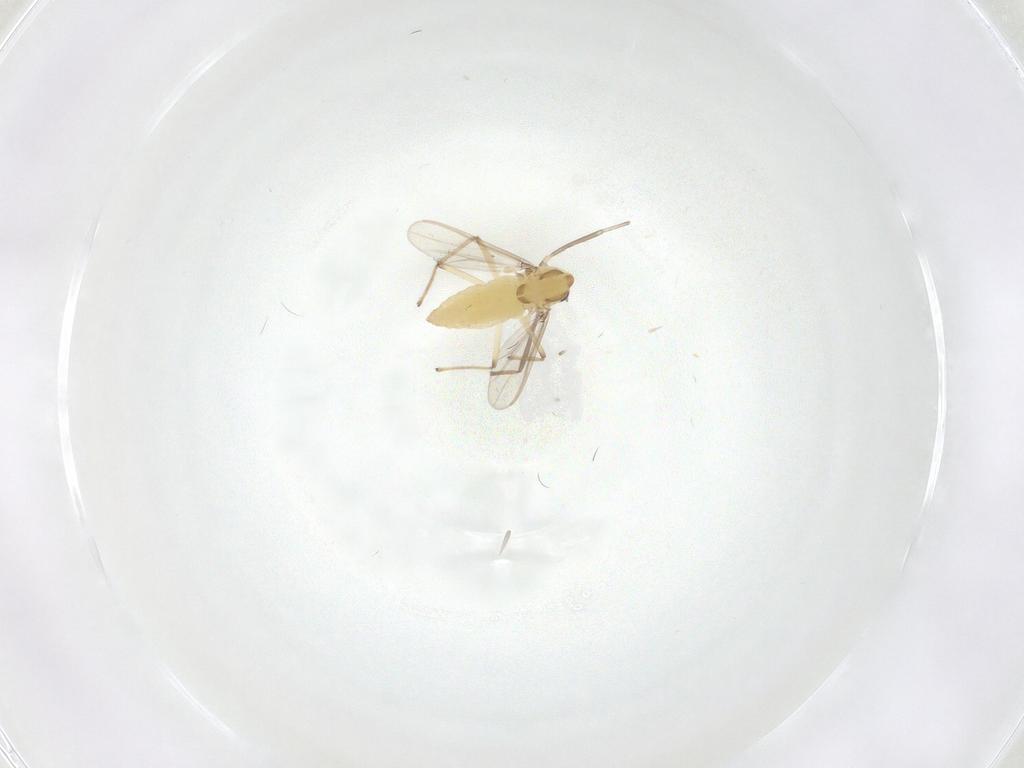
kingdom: Animalia
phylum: Arthropoda
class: Insecta
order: Diptera
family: Chironomidae
